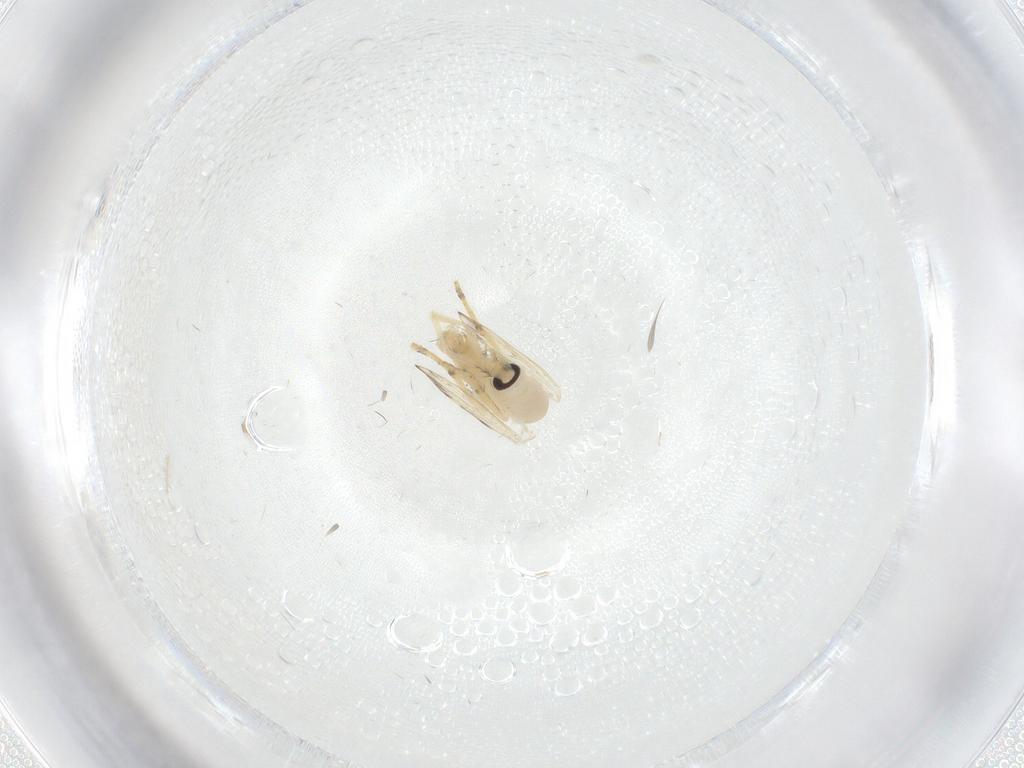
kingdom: Animalia
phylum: Arthropoda
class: Insecta
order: Diptera
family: Psychodidae
